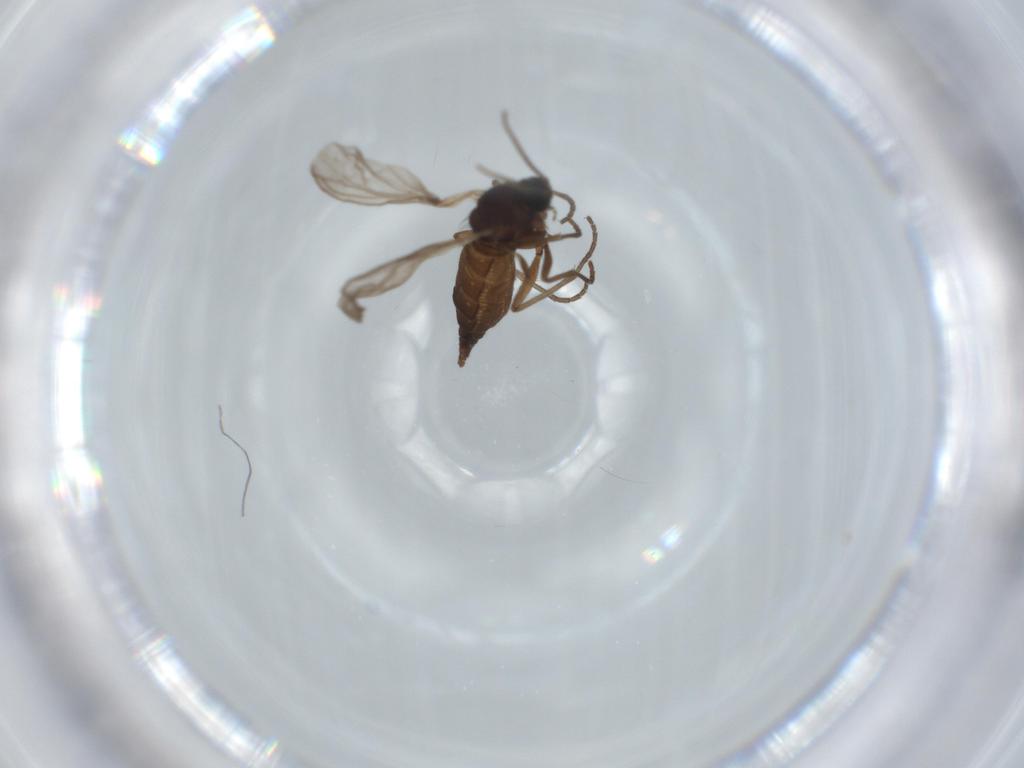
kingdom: Animalia
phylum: Arthropoda
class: Insecta
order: Diptera
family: Sciaridae
